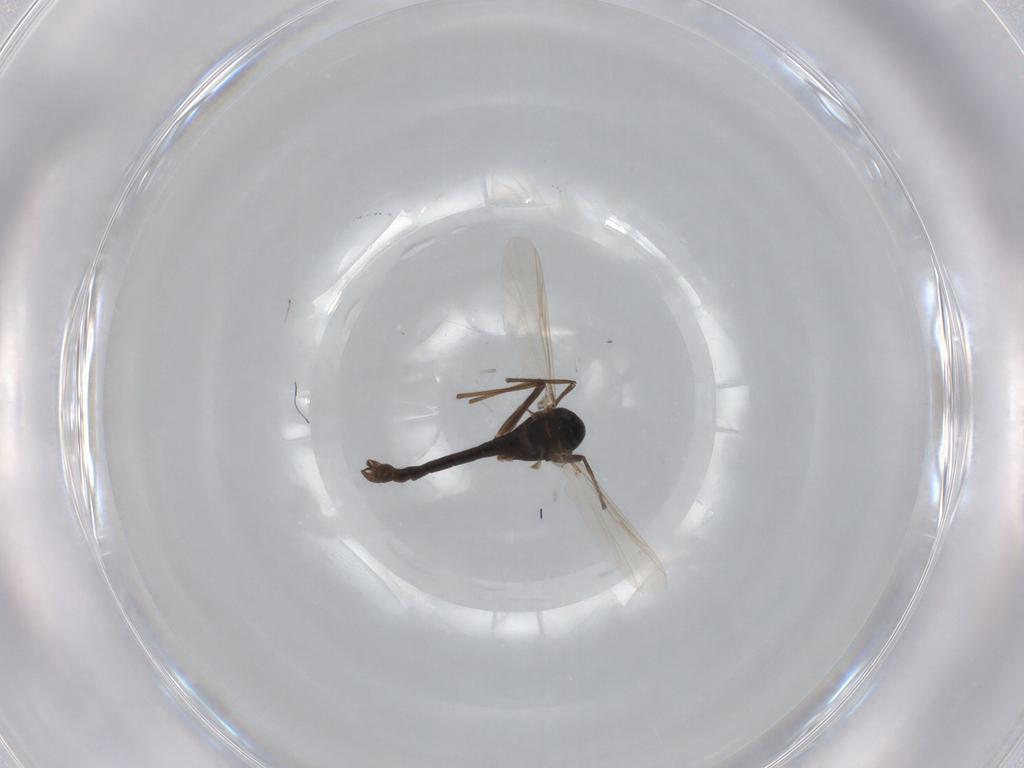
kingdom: Animalia
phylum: Arthropoda
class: Insecta
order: Diptera
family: Chironomidae
